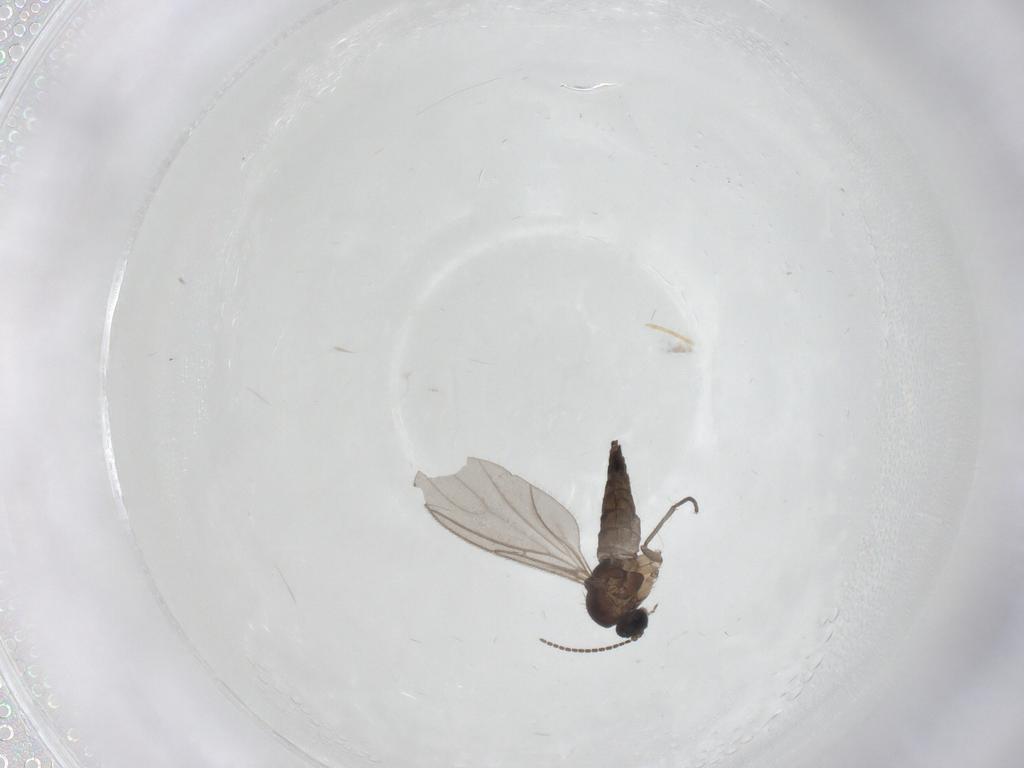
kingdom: Animalia
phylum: Arthropoda
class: Insecta
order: Diptera
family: Sciaridae
